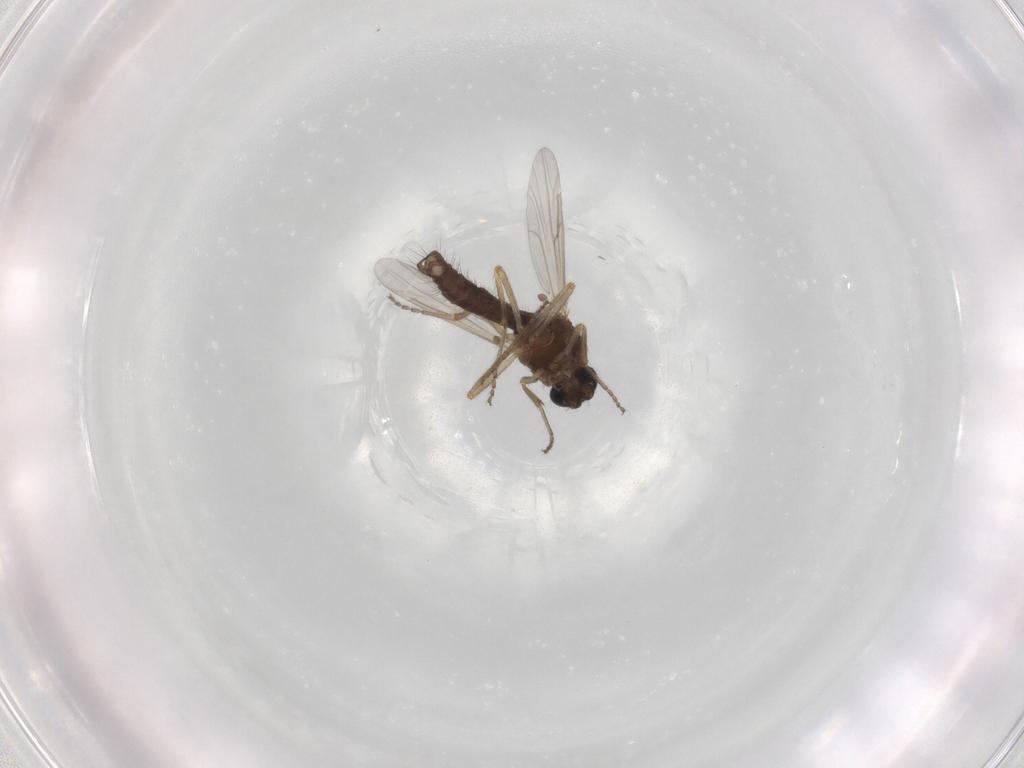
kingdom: Animalia
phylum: Arthropoda
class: Insecta
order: Diptera
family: Ceratopogonidae
